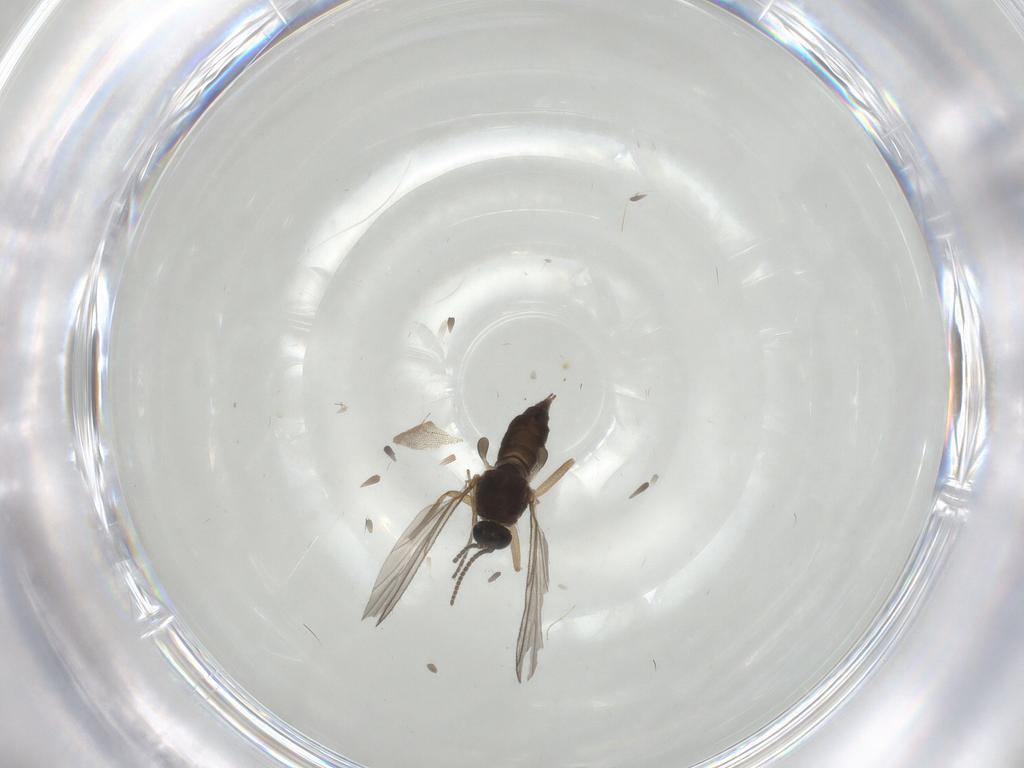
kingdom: Animalia
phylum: Arthropoda
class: Insecta
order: Diptera
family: Sciaridae
